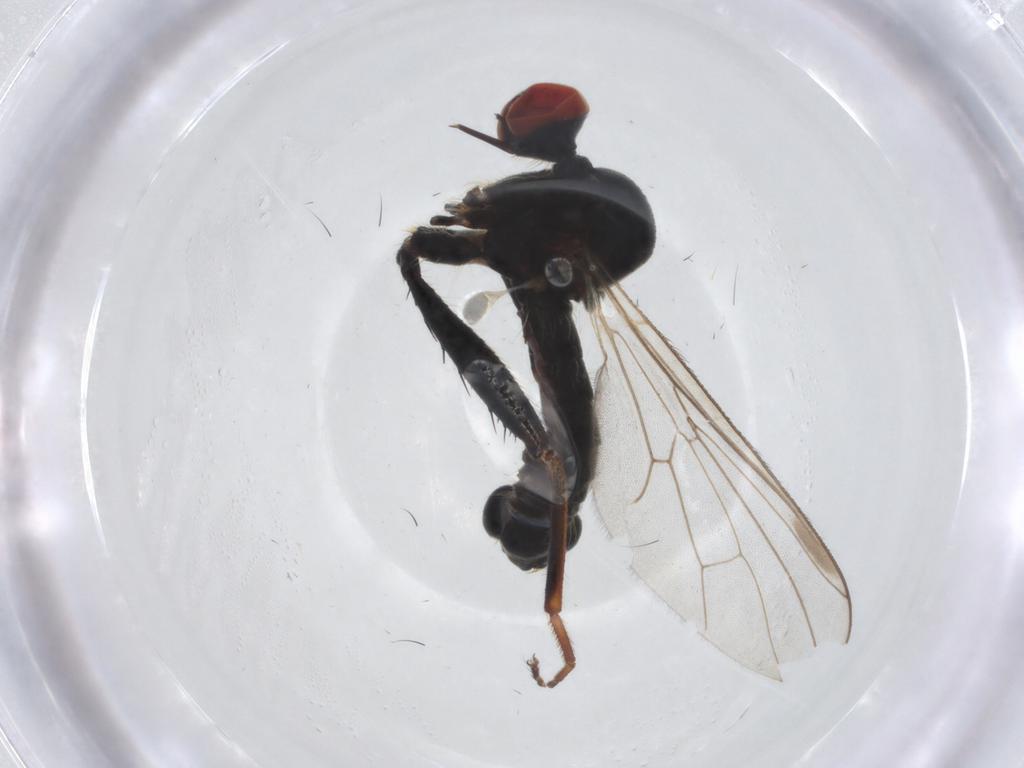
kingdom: Animalia
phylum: Arthropoda
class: Insecta
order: Diptera
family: Hybotidae
